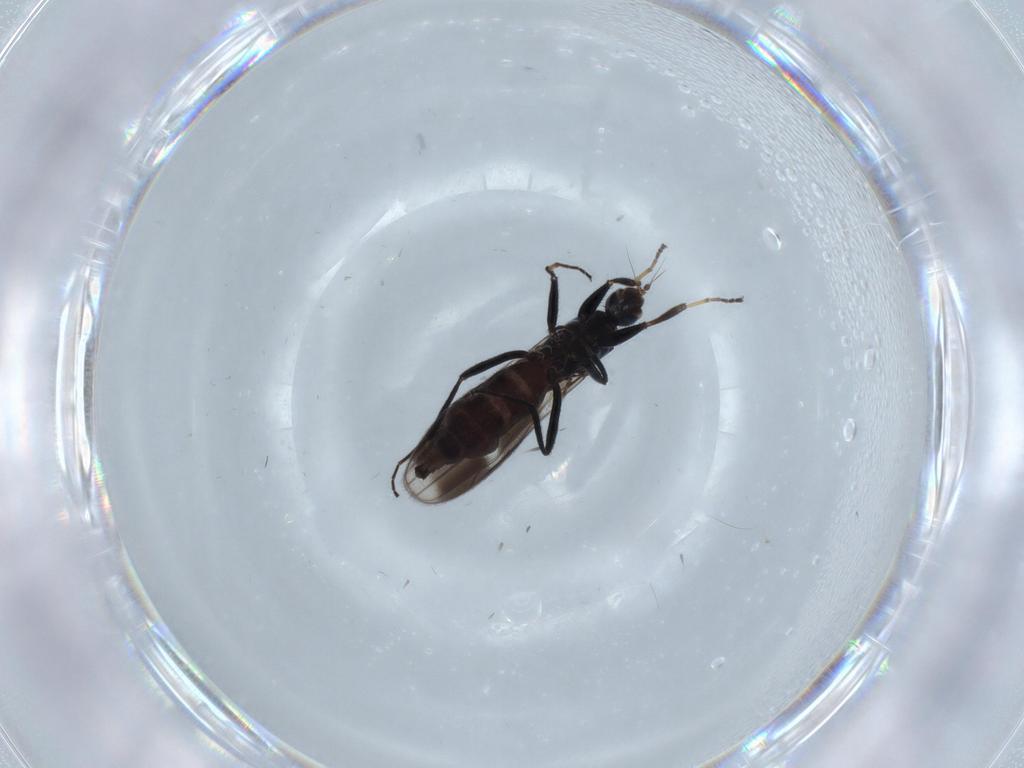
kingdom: Animalia
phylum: Arthropoda
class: Insecta
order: Diptera
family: Hybotidae
